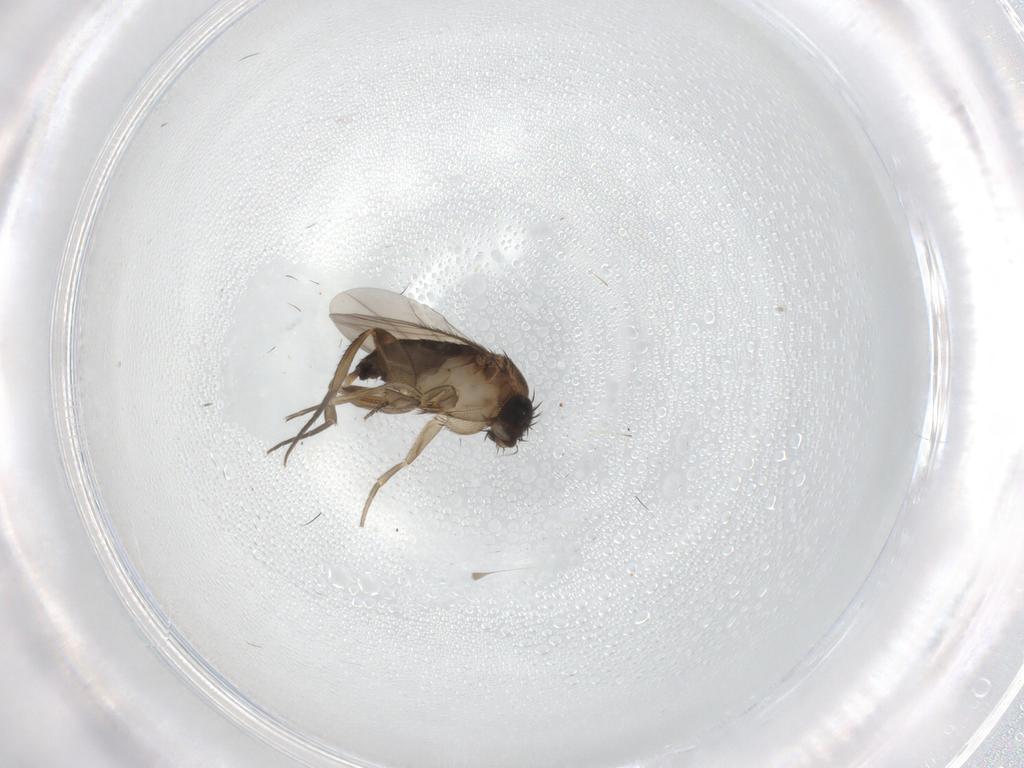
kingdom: Animalia
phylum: Arthropoda
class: Insecta
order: Diptera
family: Phoridae
